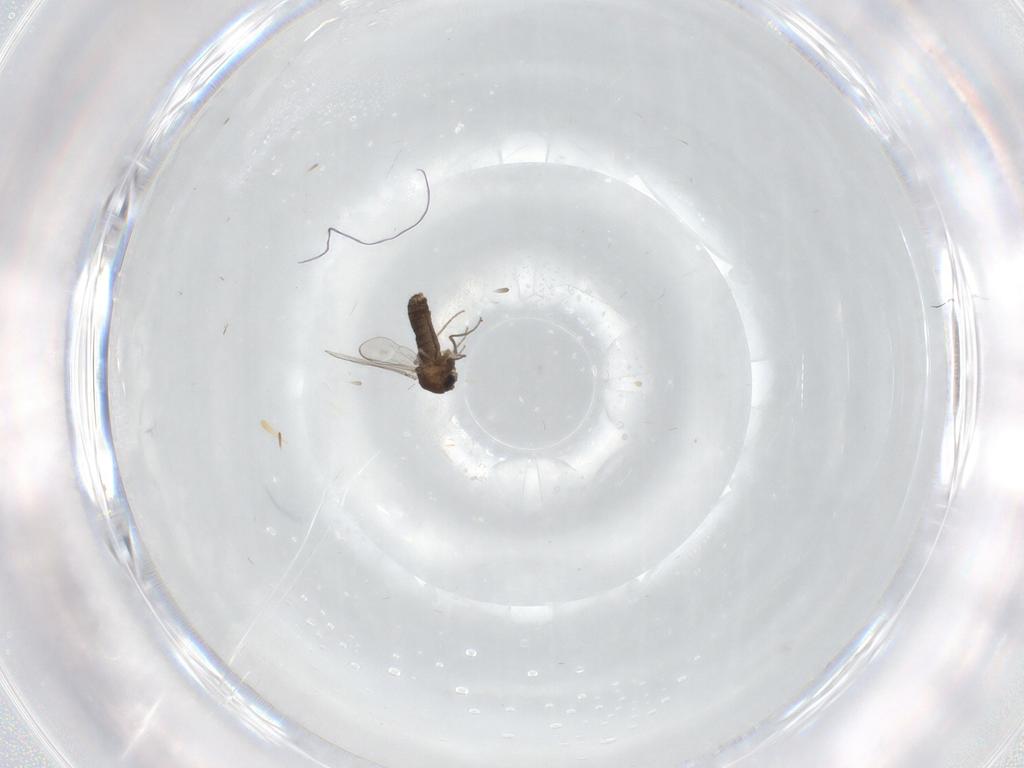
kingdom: Animalia
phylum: Arthropoda
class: Insecta
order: Diptera
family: Chironomidae
